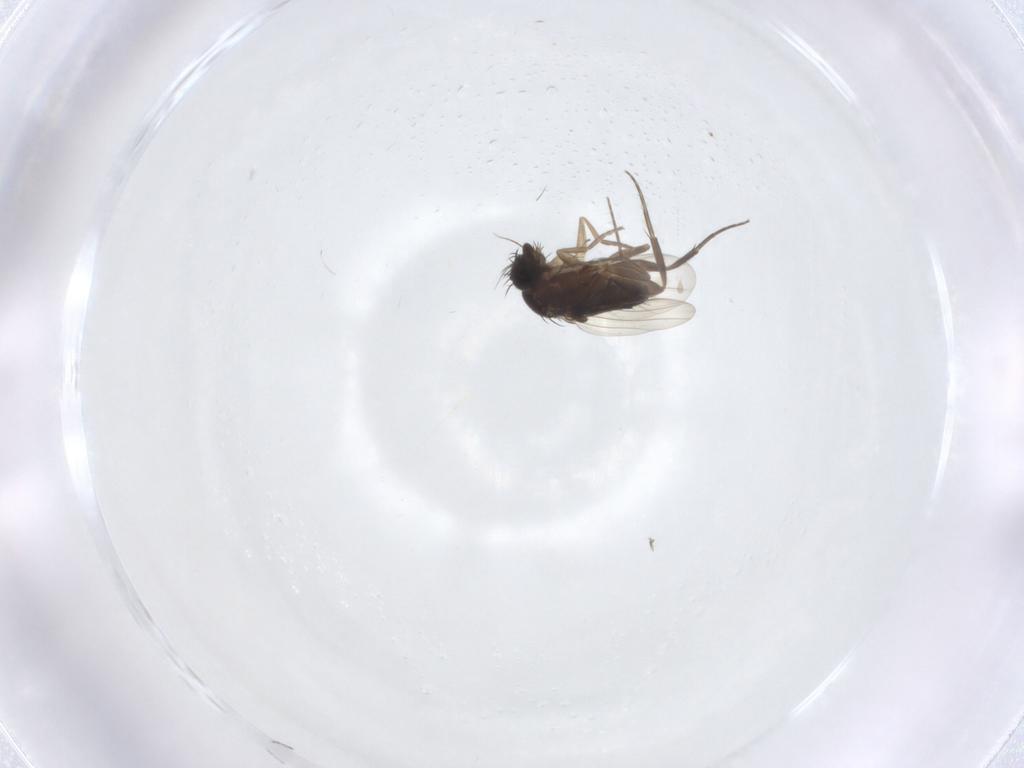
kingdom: Animalia
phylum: Arthropoda
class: Insecta
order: Diptera
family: Phoridae
